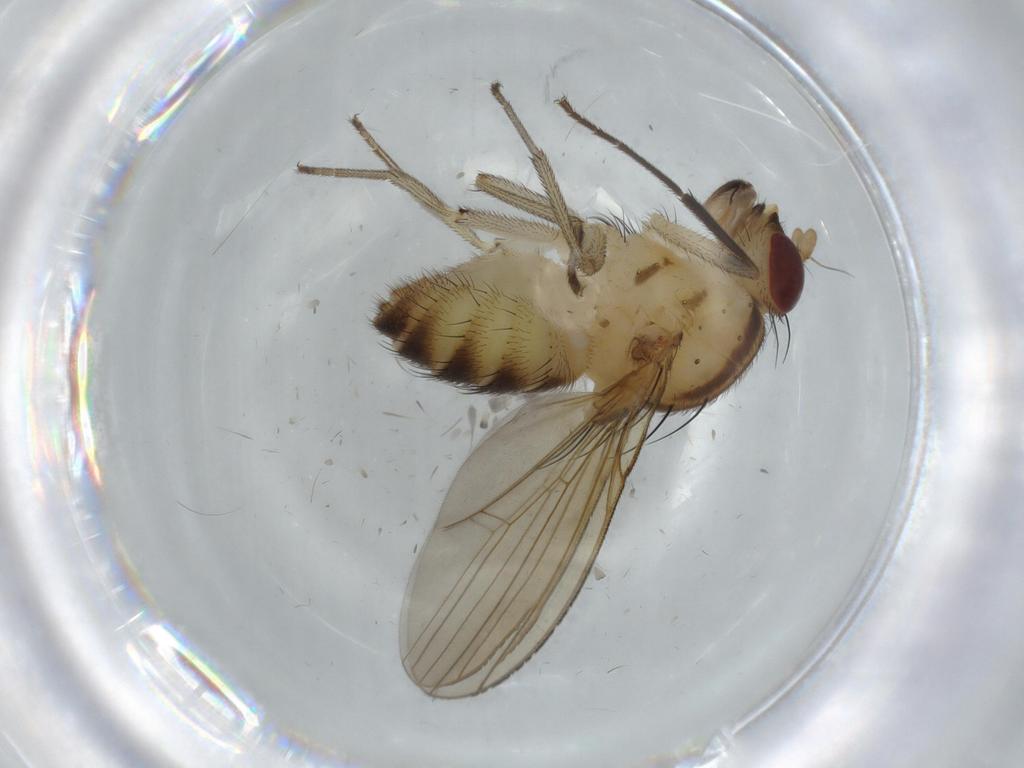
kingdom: Animalia
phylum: Arthropoda
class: Insecta
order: Diptera
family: Sciaridae
